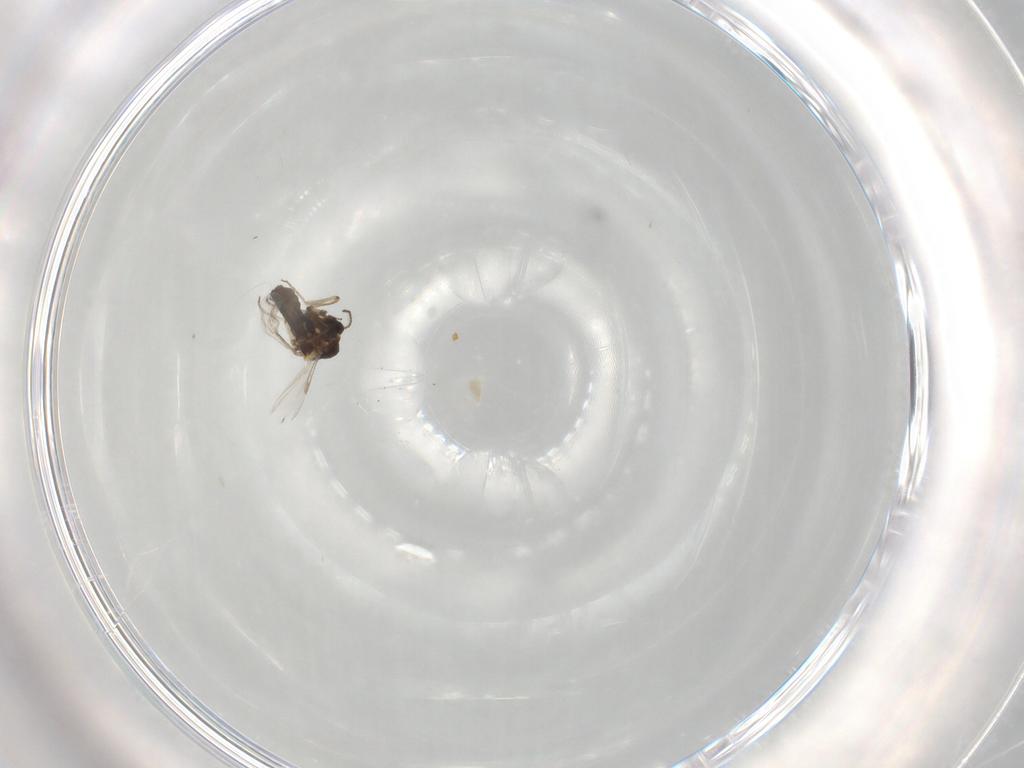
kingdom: Animalia
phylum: Arthropoda
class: Insecta
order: Diptera
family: Ceratopogonidae
